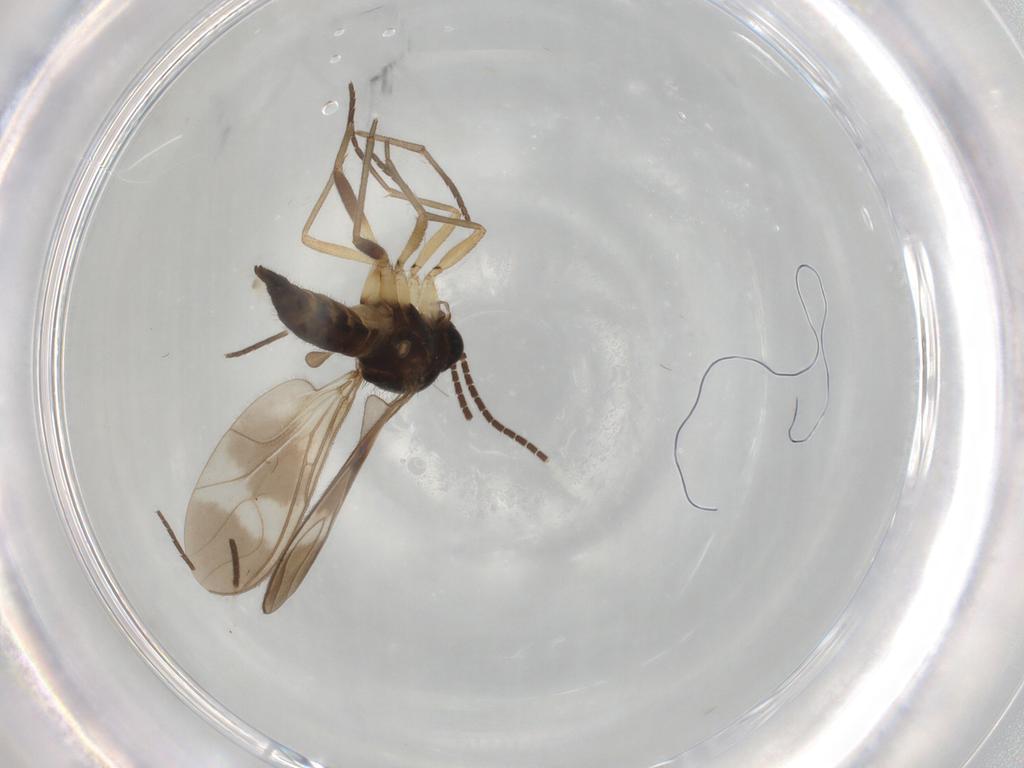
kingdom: Animalia
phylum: Arthropoda
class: Insecta
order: Diptera
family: Sciaridae
